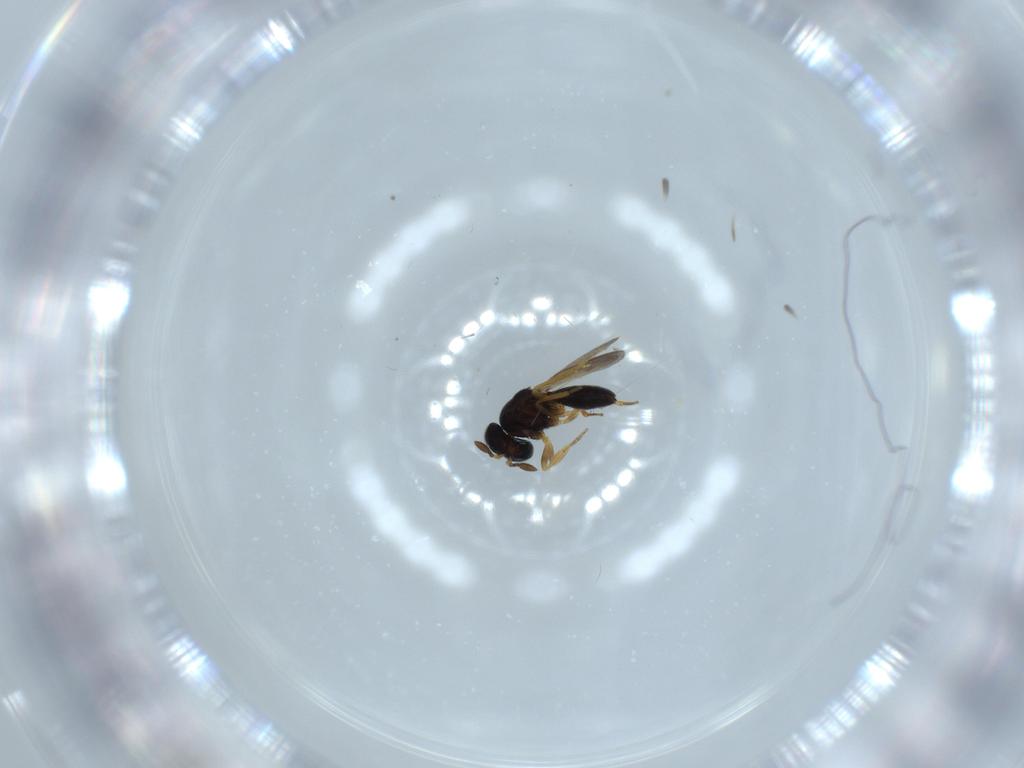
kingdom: Animalia
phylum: Arthropoda
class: Insecta
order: Hymenoptera
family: Scelionidae
